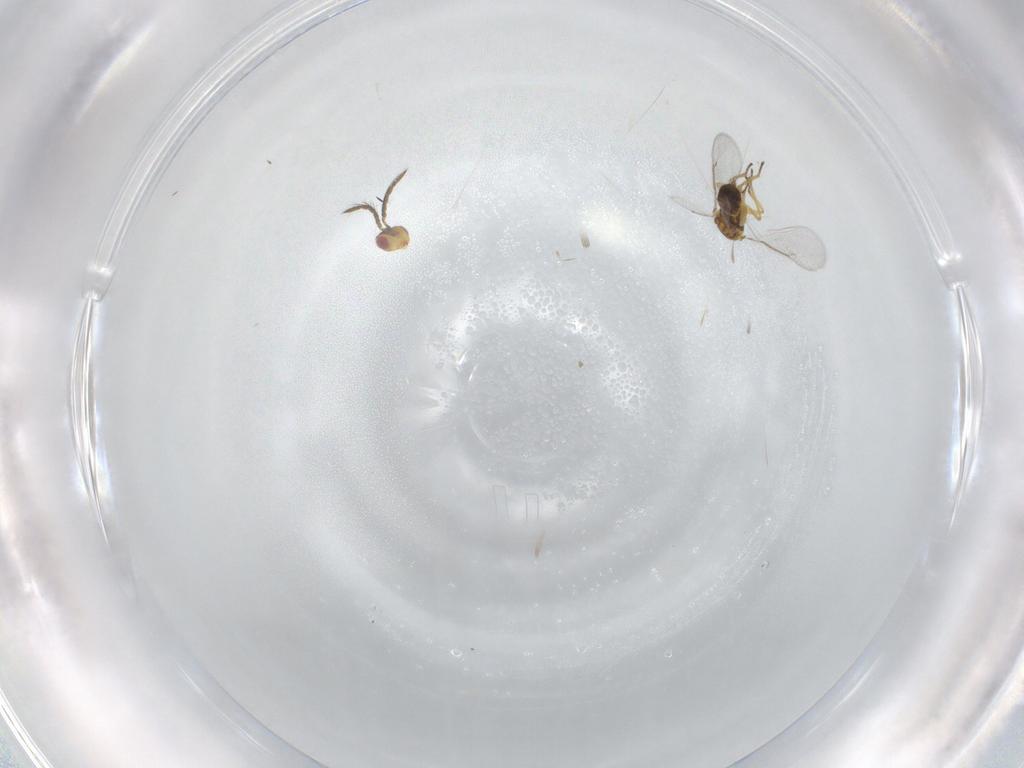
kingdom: Animalia
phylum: Arthropoda
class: Insecta
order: Hymenoptera
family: Eulophidae
